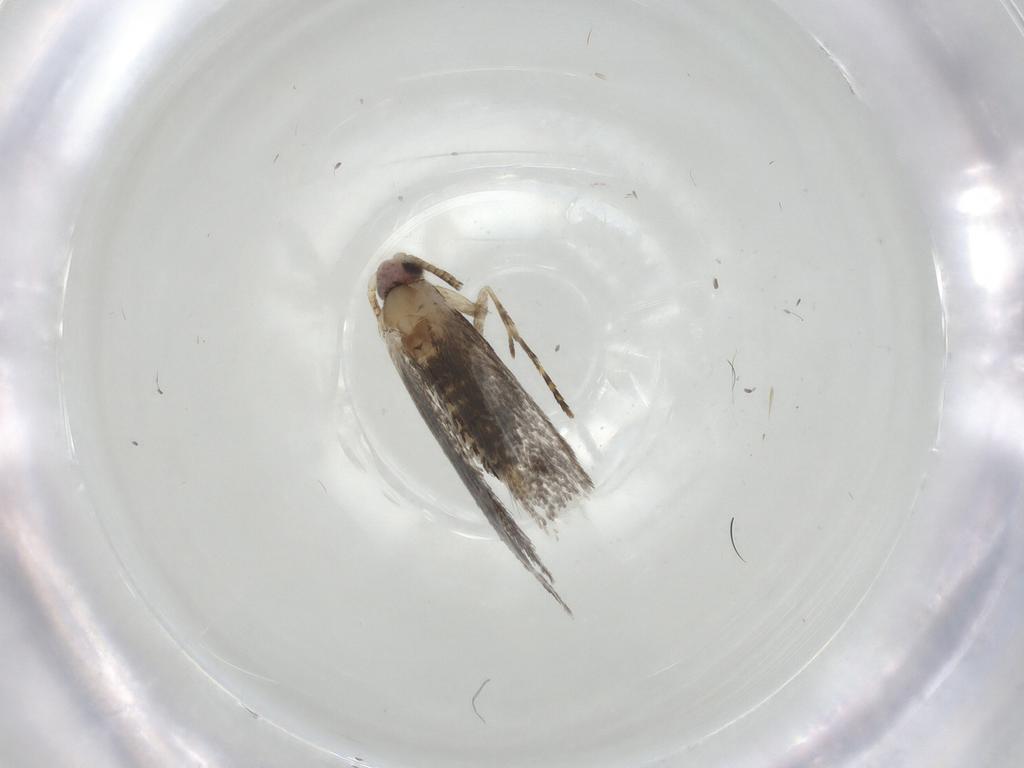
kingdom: Animalia
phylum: Arthropoda
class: Insecta
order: Lepidoptera
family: Tineidae
